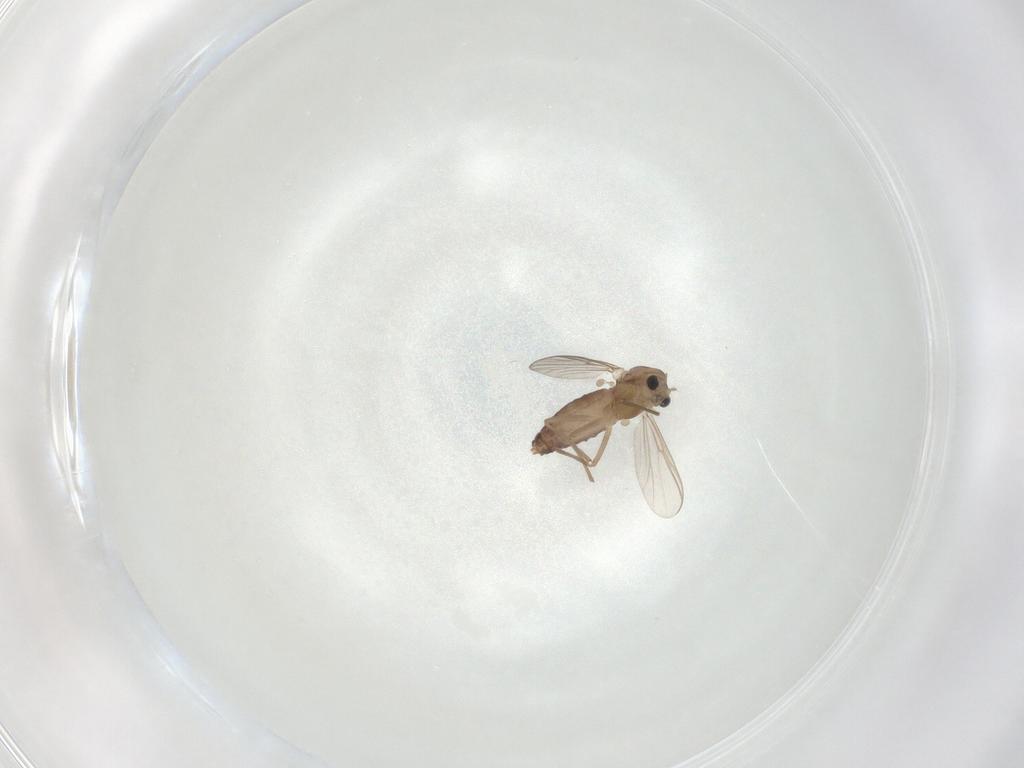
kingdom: Animalia
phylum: Arthropoda
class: Insecta
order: Diptera
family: Chironomidae
